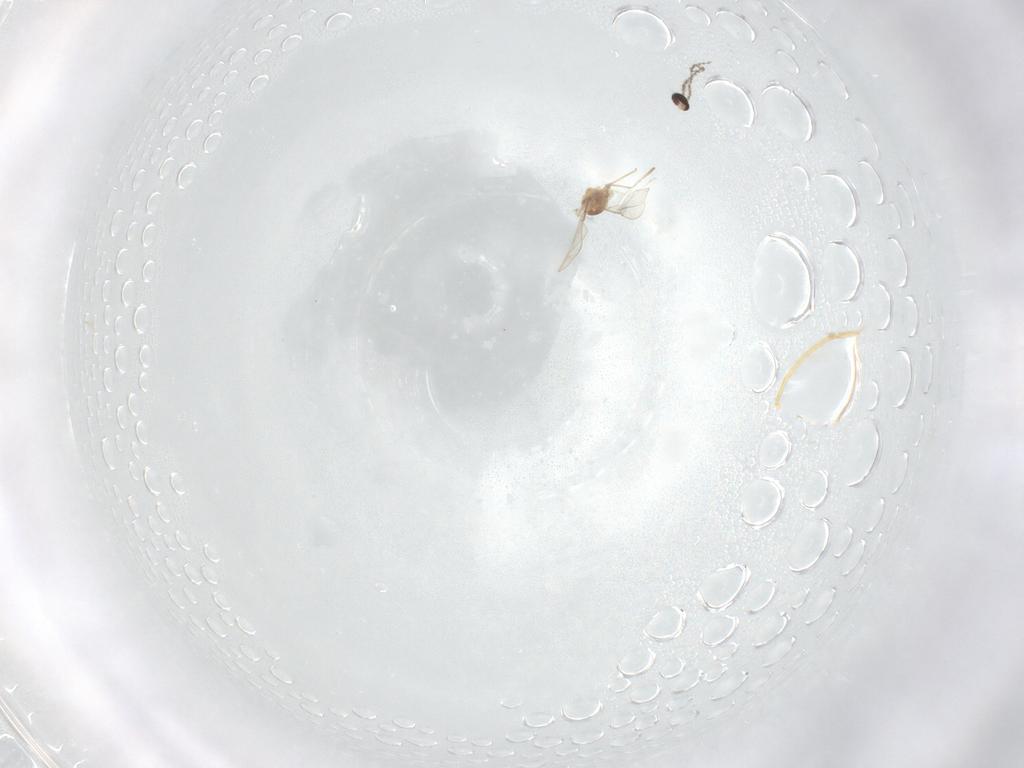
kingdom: Animalia
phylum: Arthropoda
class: Insecta
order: Diptera
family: Cecidomyiidae
